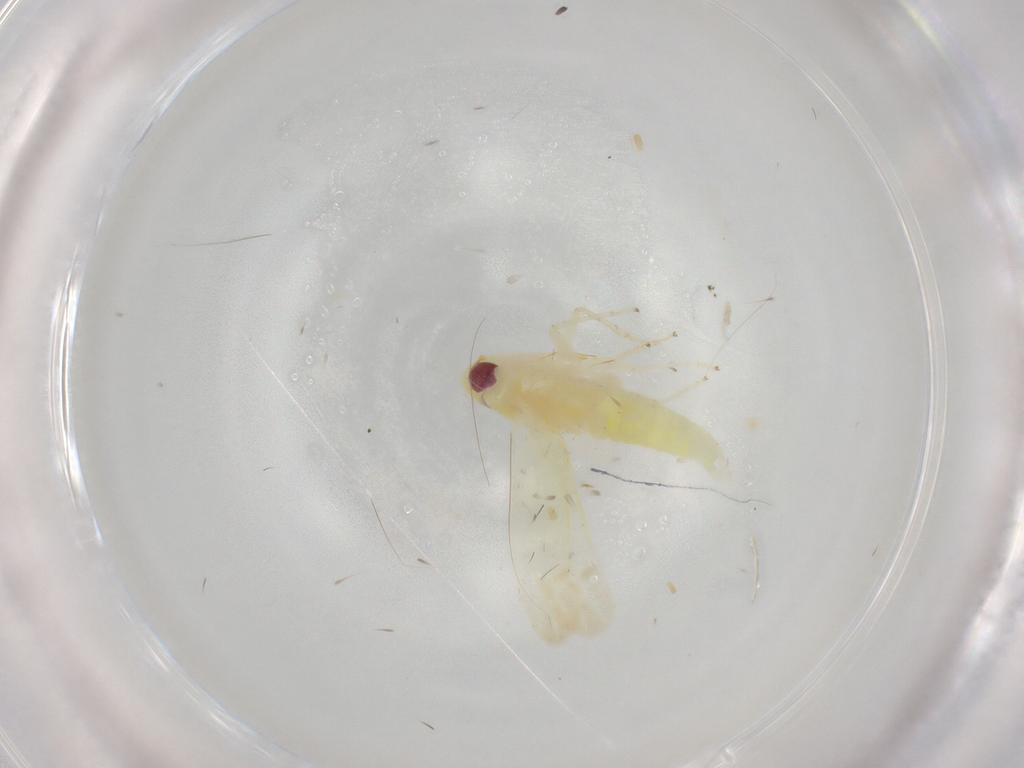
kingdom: Animalia
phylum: Arthropoda
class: Insecta
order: Hemiptera
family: Cicadellidae
